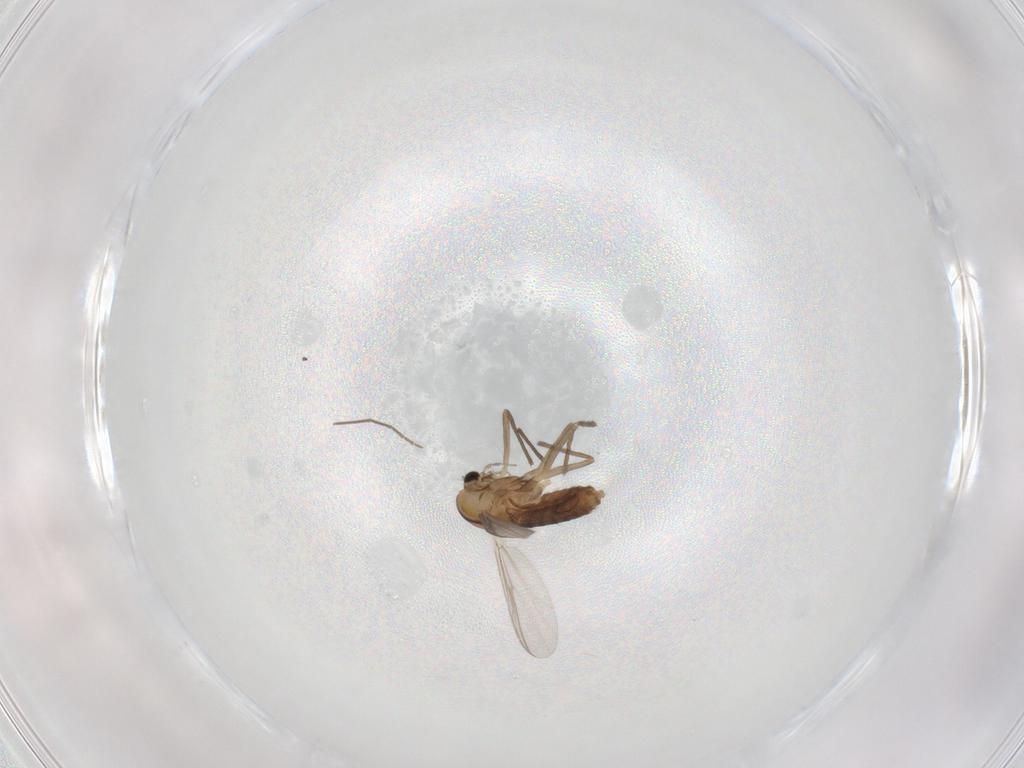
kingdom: Animalia
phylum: Arthropoda
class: Insecta
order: Diptera
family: Chironomidae
